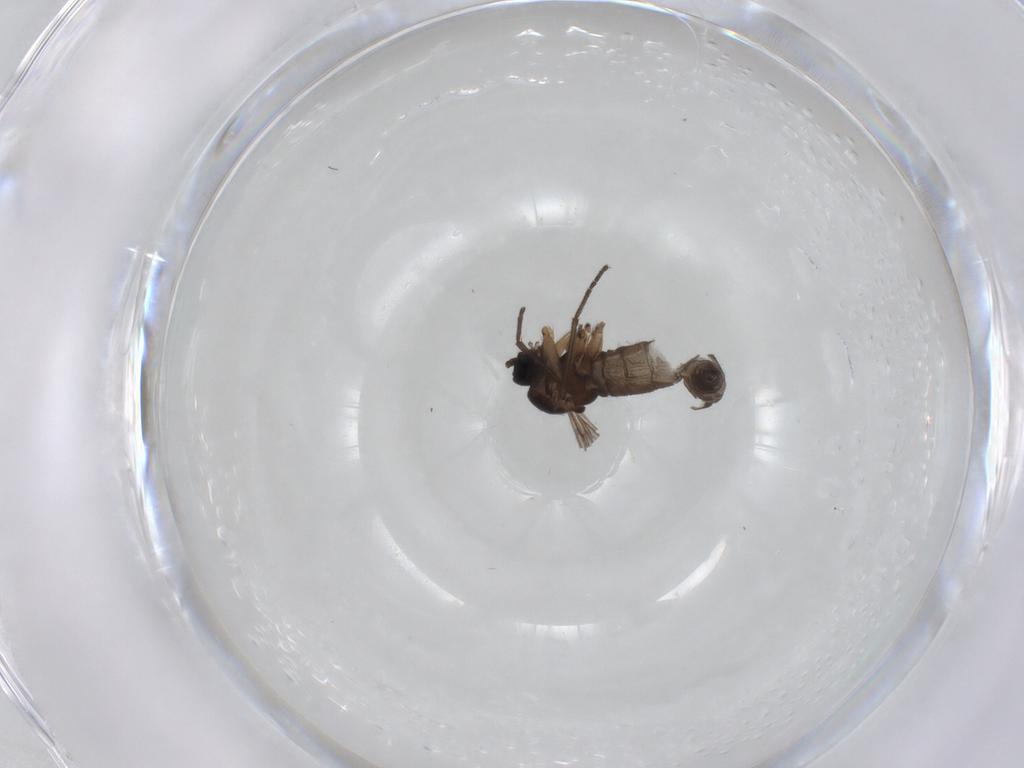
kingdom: Animalia
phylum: Arthropoda
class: Insecta
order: Diptera
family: Sciaridae
